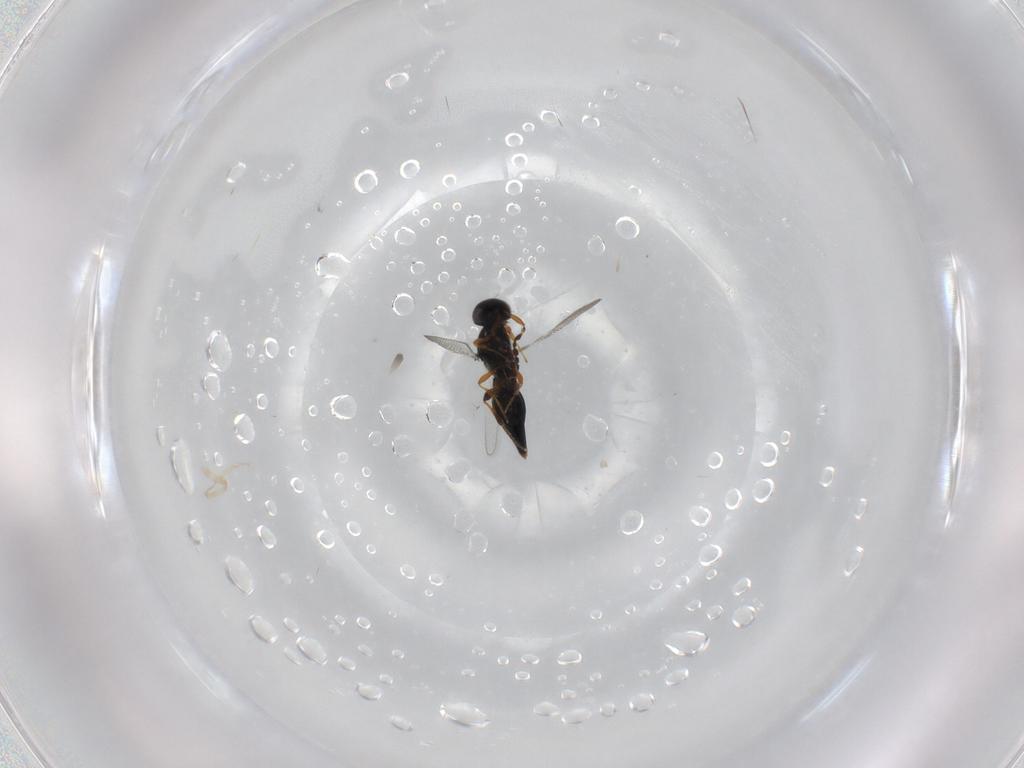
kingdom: Animalia
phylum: Arthropoda
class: Insecta
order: Hymenoptera
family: Platygastridae
